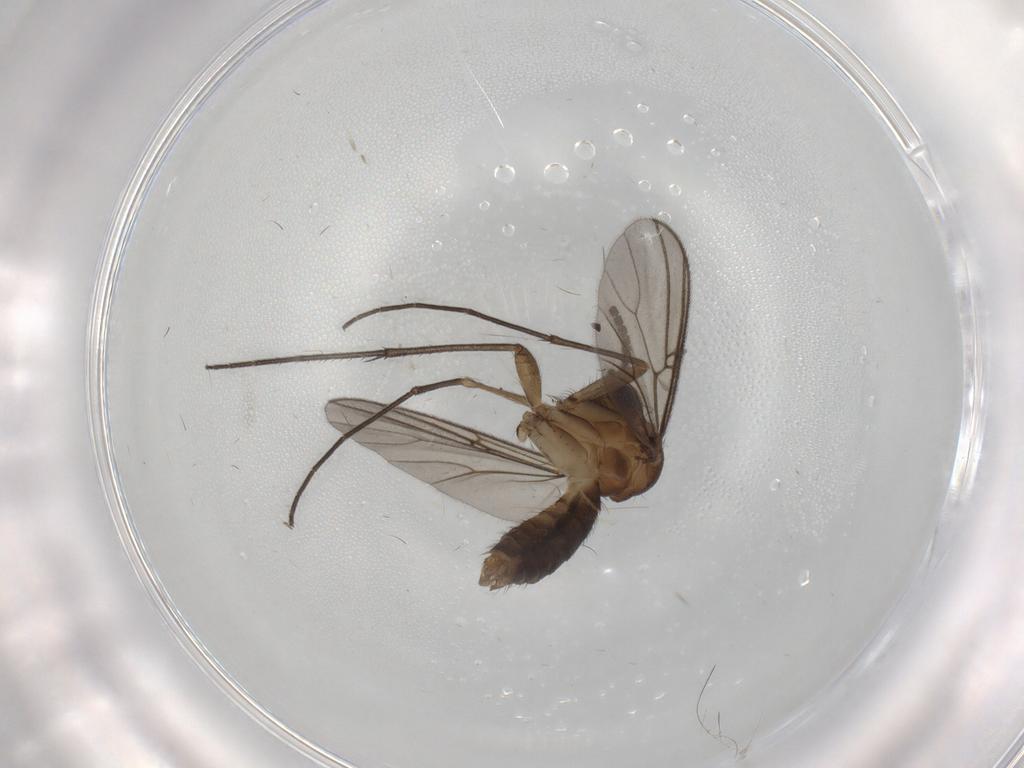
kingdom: Animalia
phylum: Arthropoda
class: Insecta
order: Diptera
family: Sciaridae
